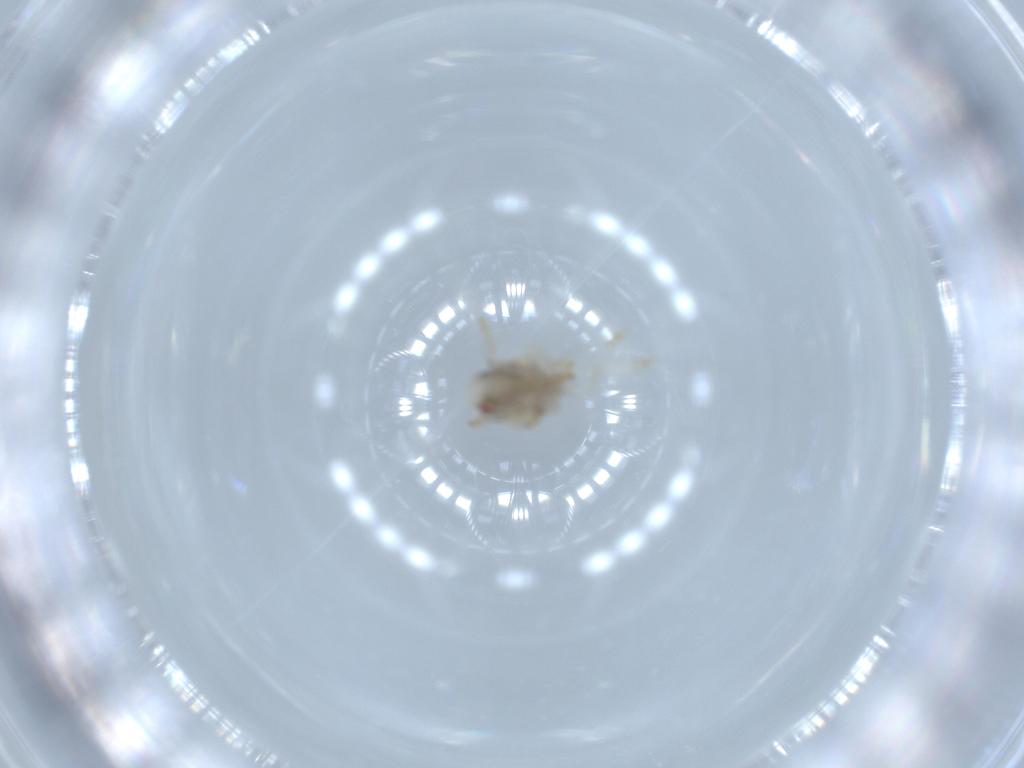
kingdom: Animalia
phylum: Arthropoda
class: Insecta
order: Hemiptera
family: Acanaloniidae
